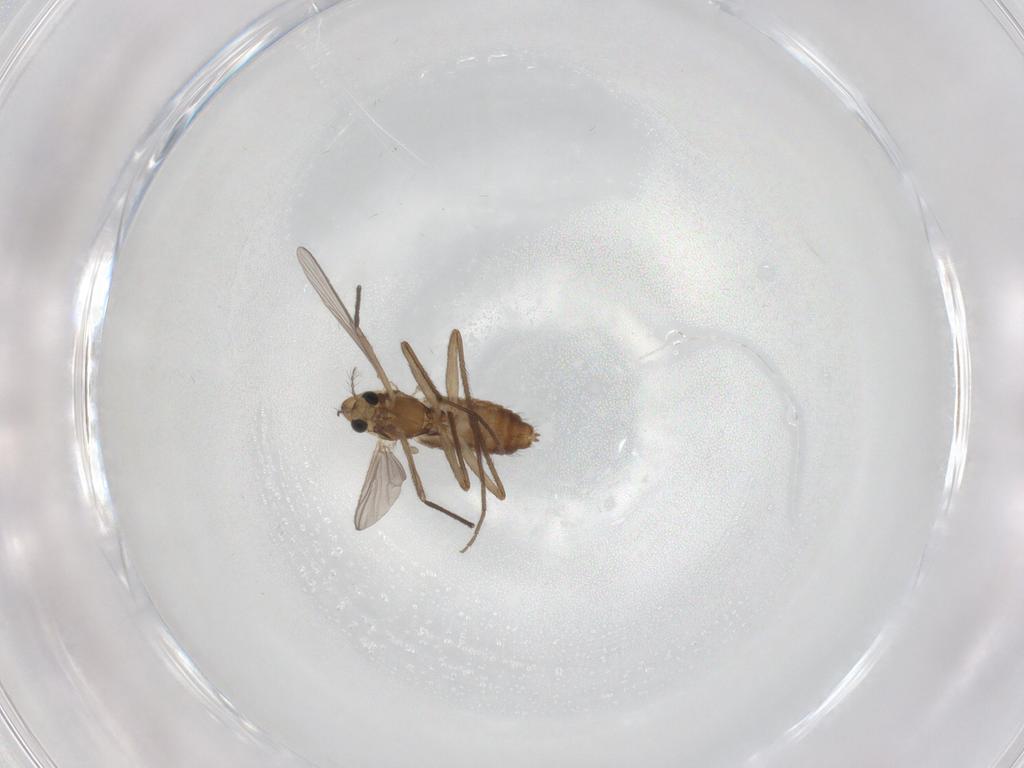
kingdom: Animalia
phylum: Arthropoda
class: Insecta
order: Diptera
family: Chironomidae
